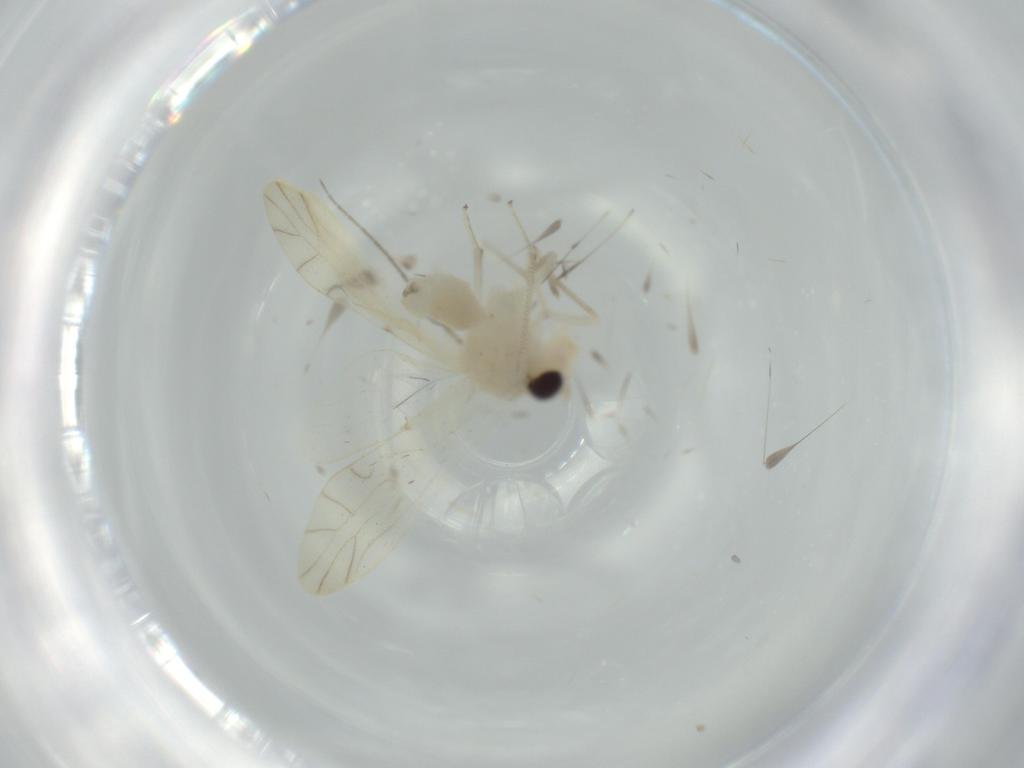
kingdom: Animalia
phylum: Arthropoda
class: Insecta
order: Psocodea
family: Caeciliusidae
